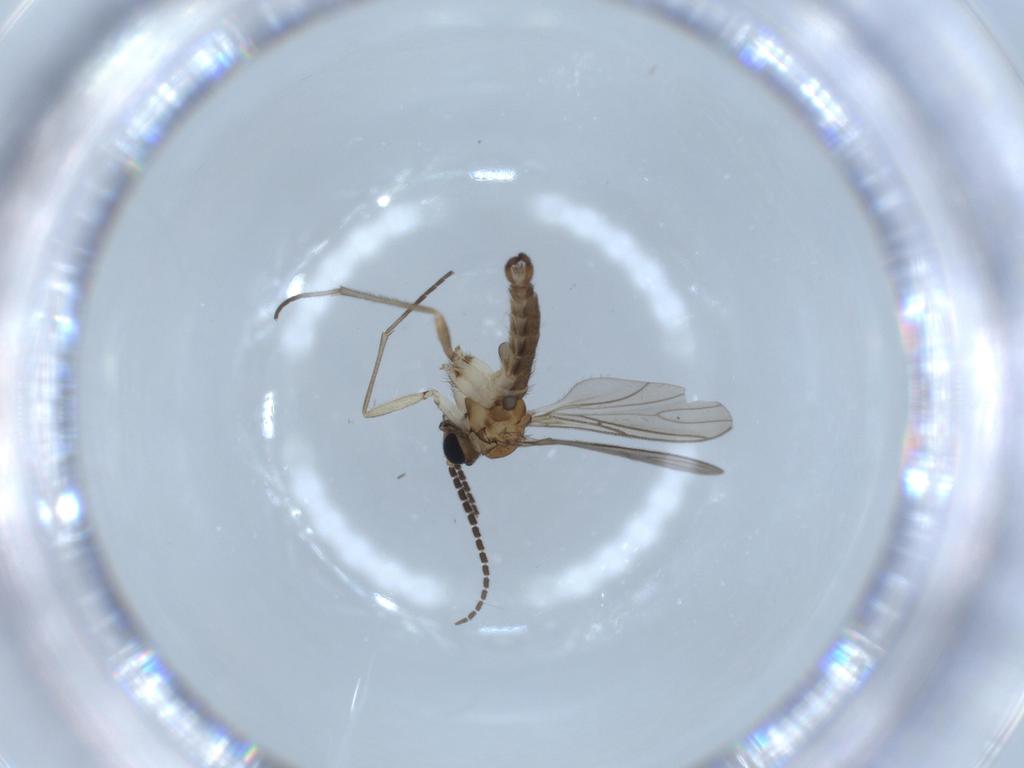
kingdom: Animalia
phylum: Arthropoda
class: Insecta
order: Diptera
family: Sciaridae
